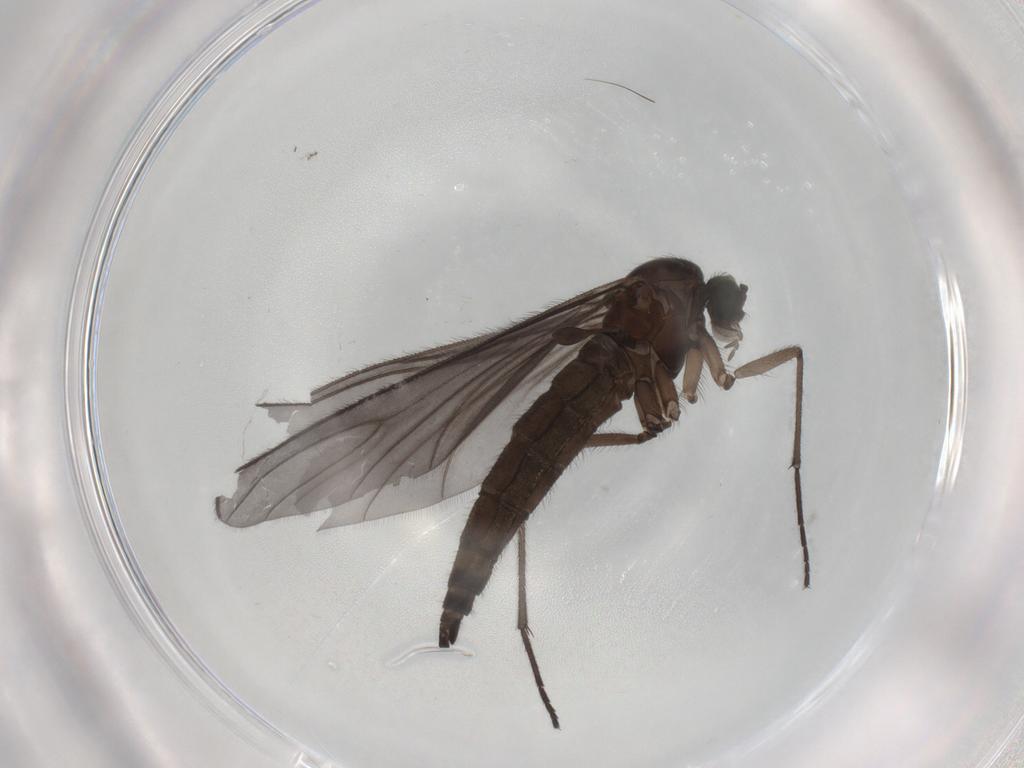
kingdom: Animalia
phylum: Arthropoda
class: Insecta
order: Diptera
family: Sciaridae
